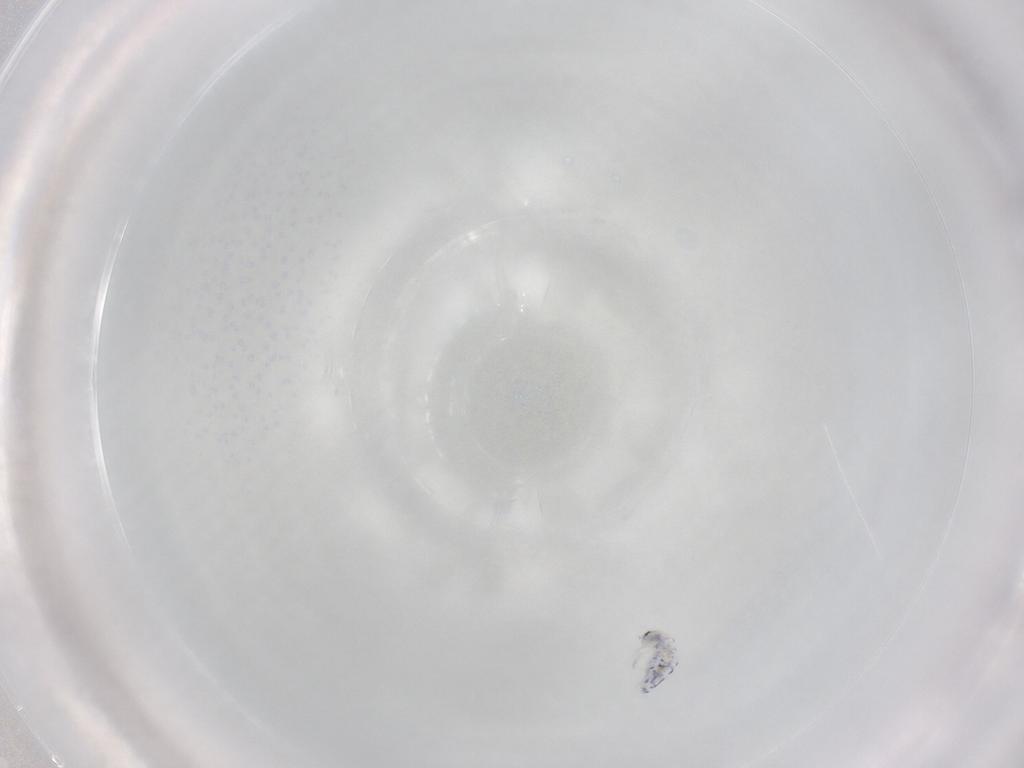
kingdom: Animalia
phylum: Arthropoda
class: Collembola
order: Entomobryomorpha
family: Entomobryidae
